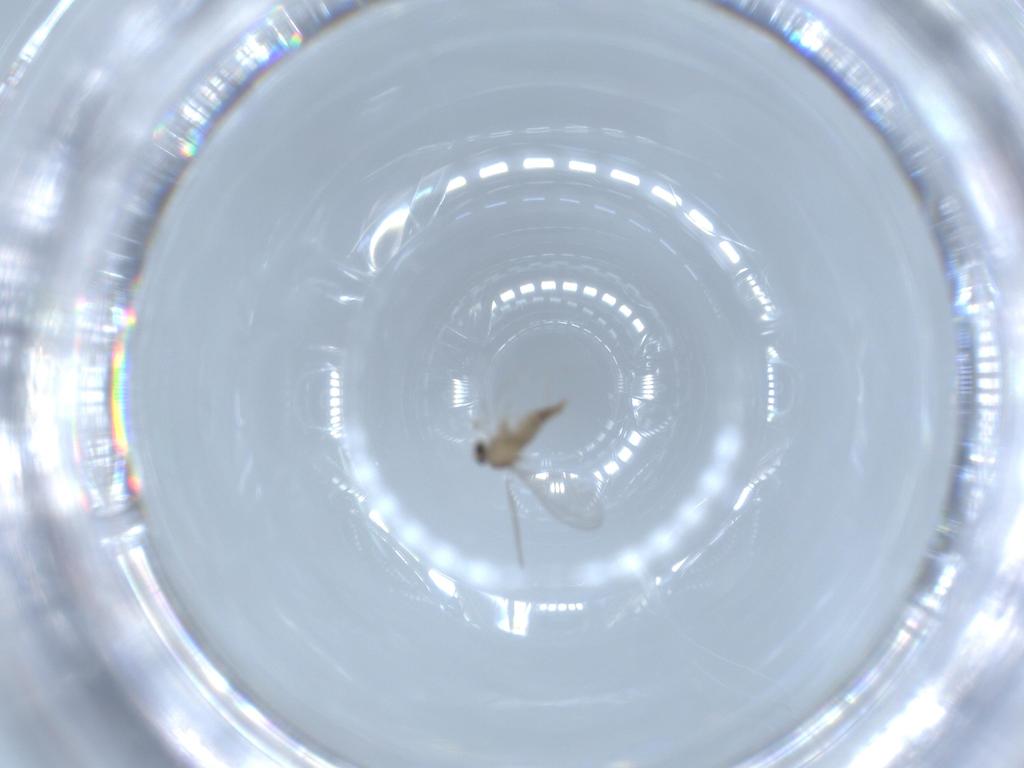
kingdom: Animalia
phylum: Arthropoda
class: Insecta
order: Diptera
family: Cecidomyiidae
